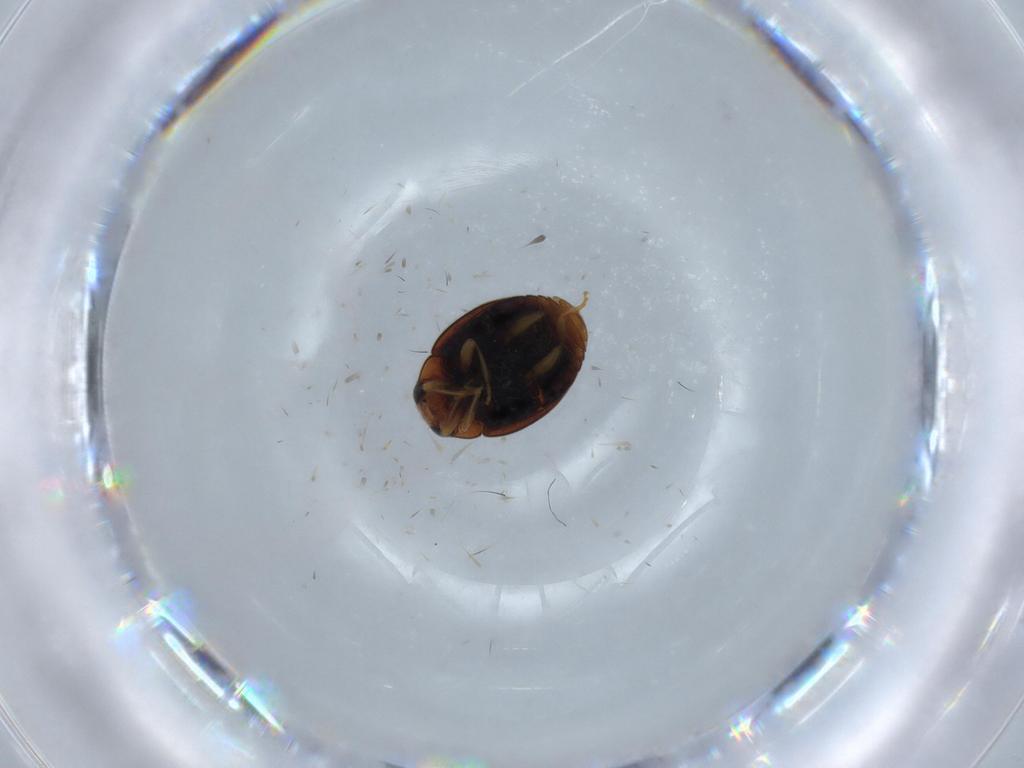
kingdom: Animalia
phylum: Arthropoda
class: Insecta
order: Coleoptera
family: Coccinellidae
